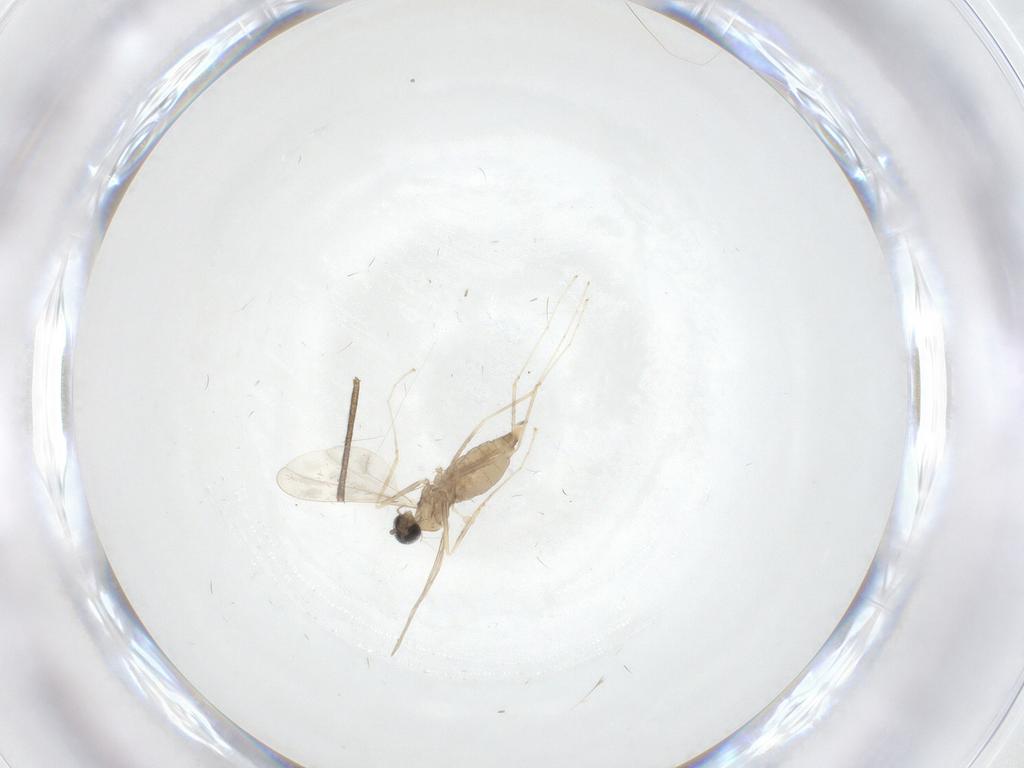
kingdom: Animalia
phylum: Arthropoda
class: Insecta
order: Diptera
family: Cecidomyiidae
